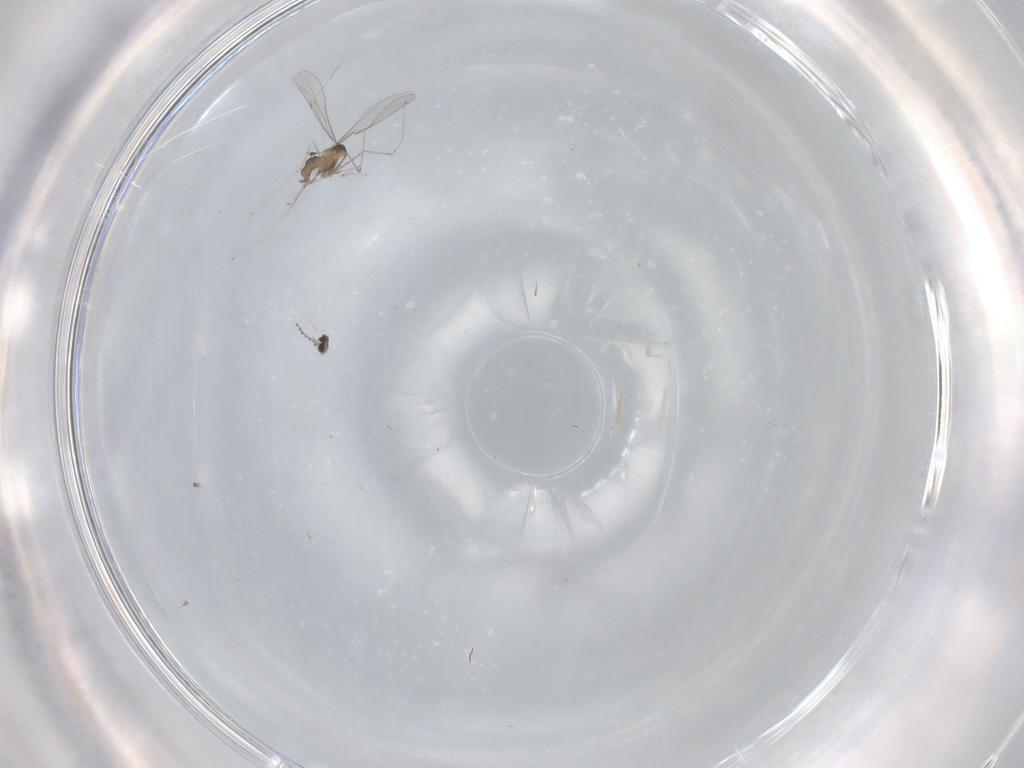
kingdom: Animalia
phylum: Arthropoda
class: Insecta
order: Diptera
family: Cecidomyiidae
